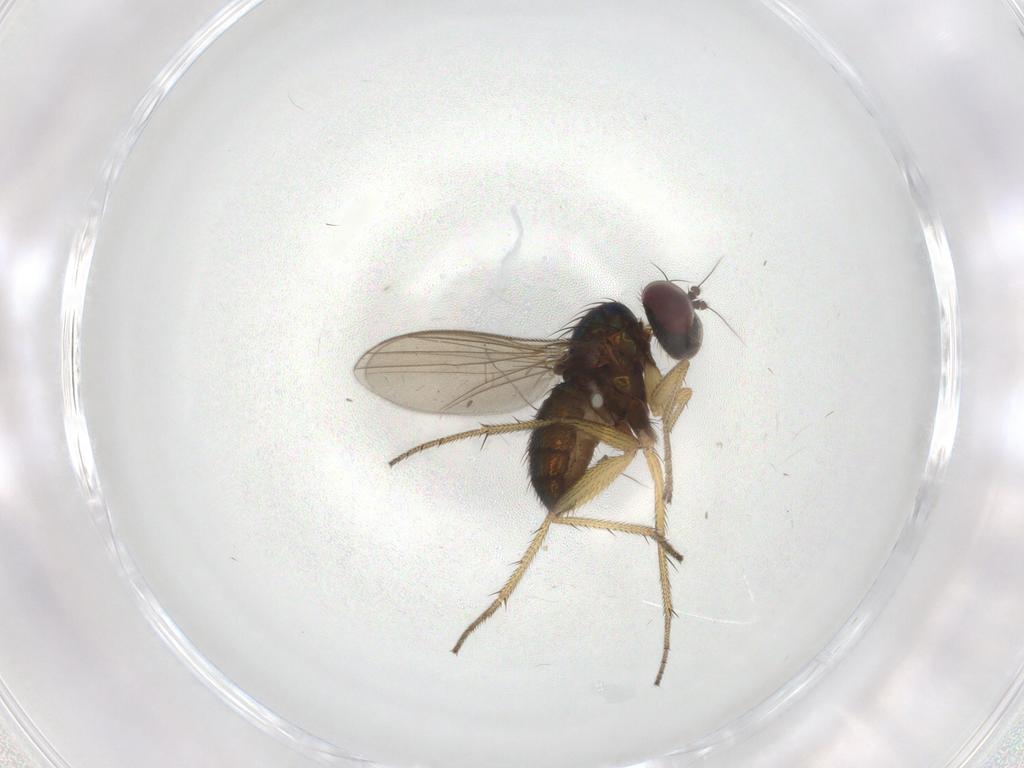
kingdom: Animalia
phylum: Arthropoda
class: Insecta
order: Diptera
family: Dolichopodidae
